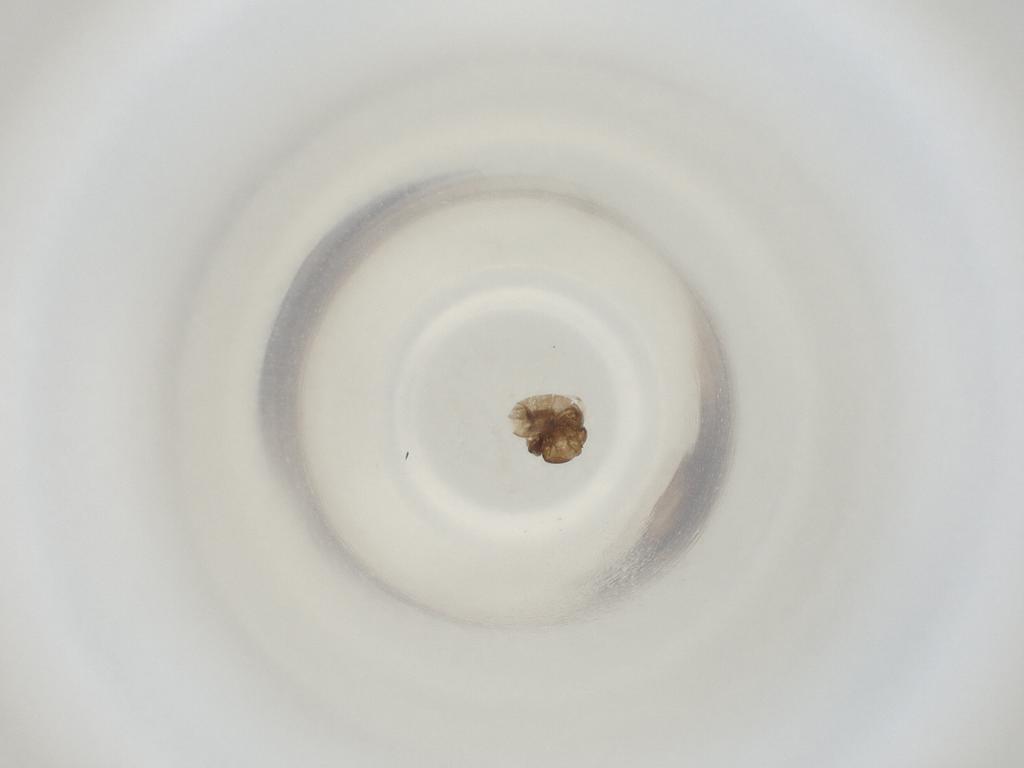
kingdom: Animalia
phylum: Arthropoda
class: Insecta
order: Diptera
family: Cecidomyiidae
